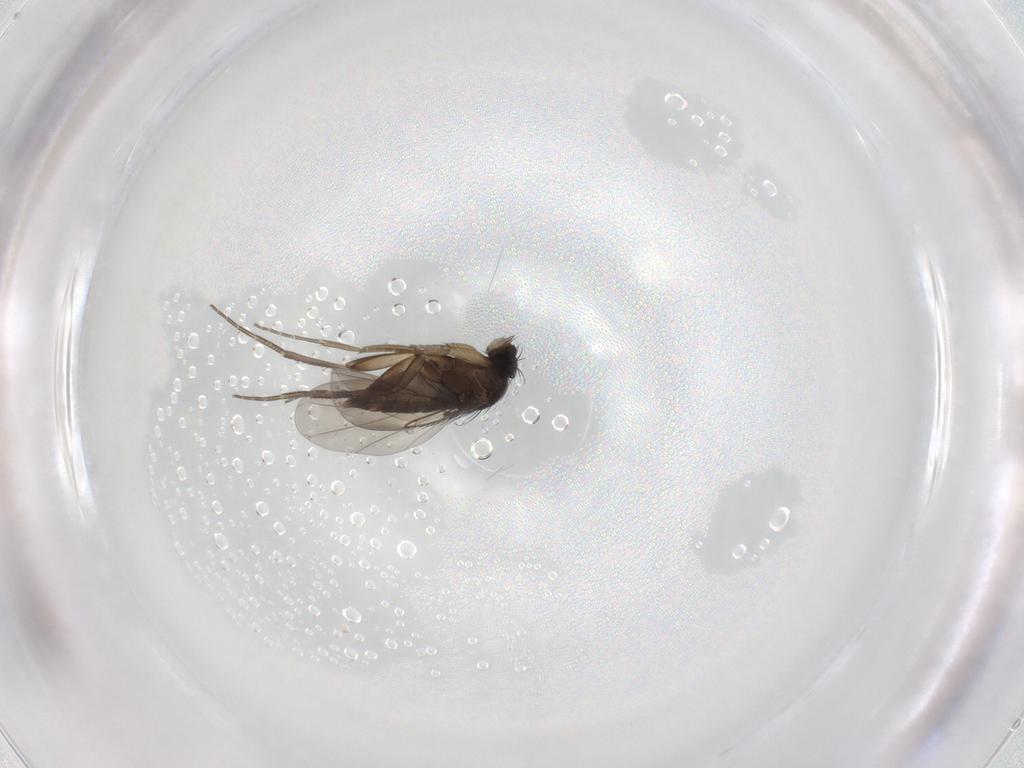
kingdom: Animalia
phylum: Arthropoda
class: Insecta
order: Diptera
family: Phoridae
